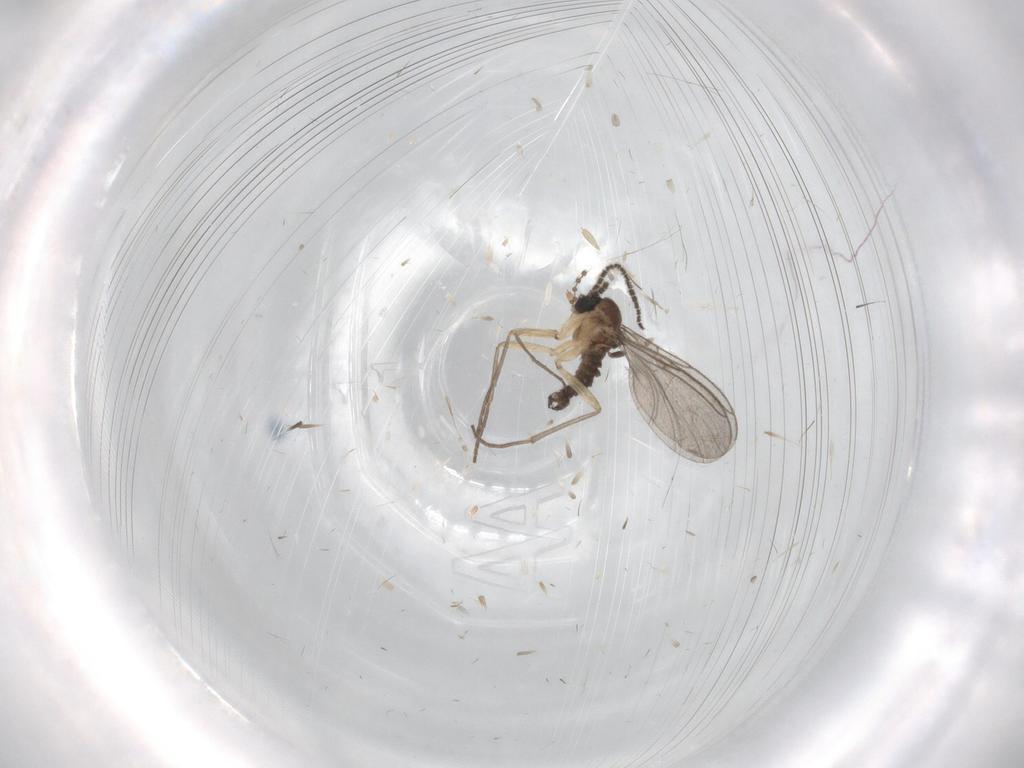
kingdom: Animalia
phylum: Arthropoda
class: Insecta
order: Diptera
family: Sciaridae
